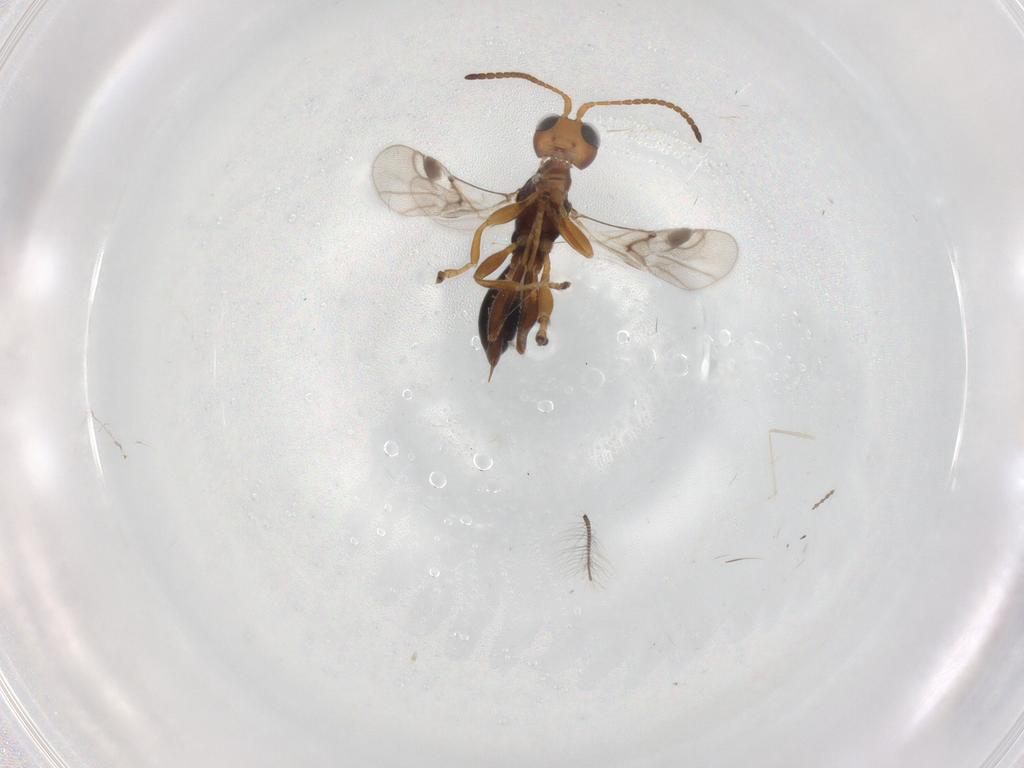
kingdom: Animalia
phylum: Arthropoda
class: Insecta
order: Hymenoptera
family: Braconidae
